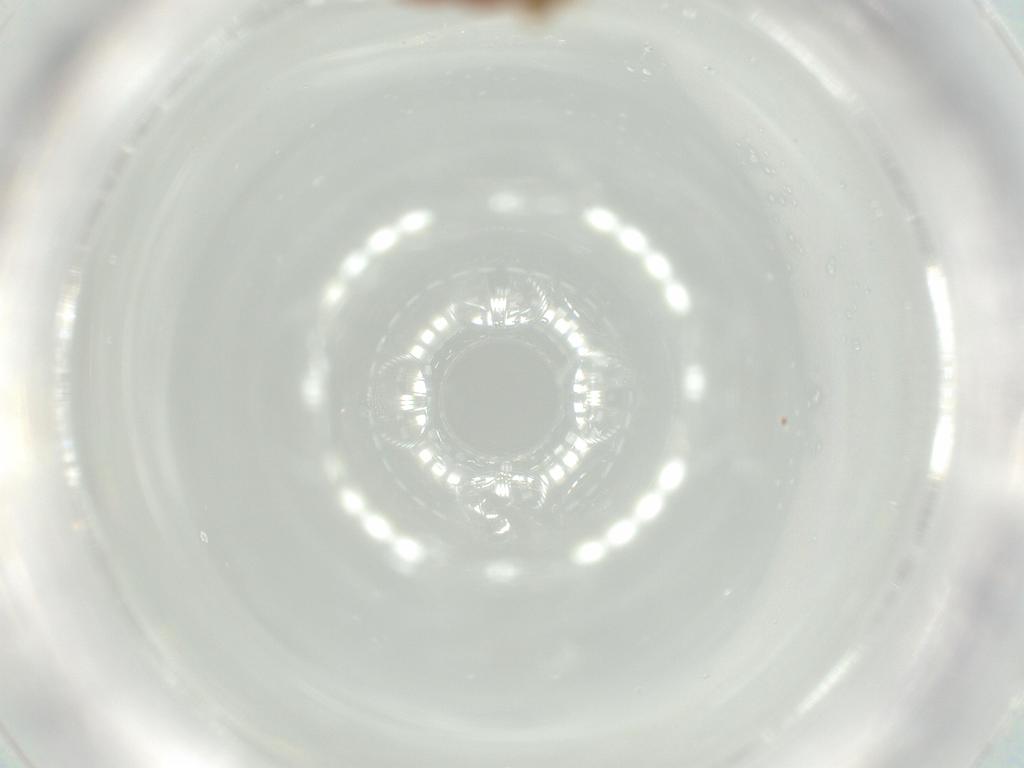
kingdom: Animalia
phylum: Arthropoda
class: Insecta
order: Coleoptera
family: Staphylinidae
